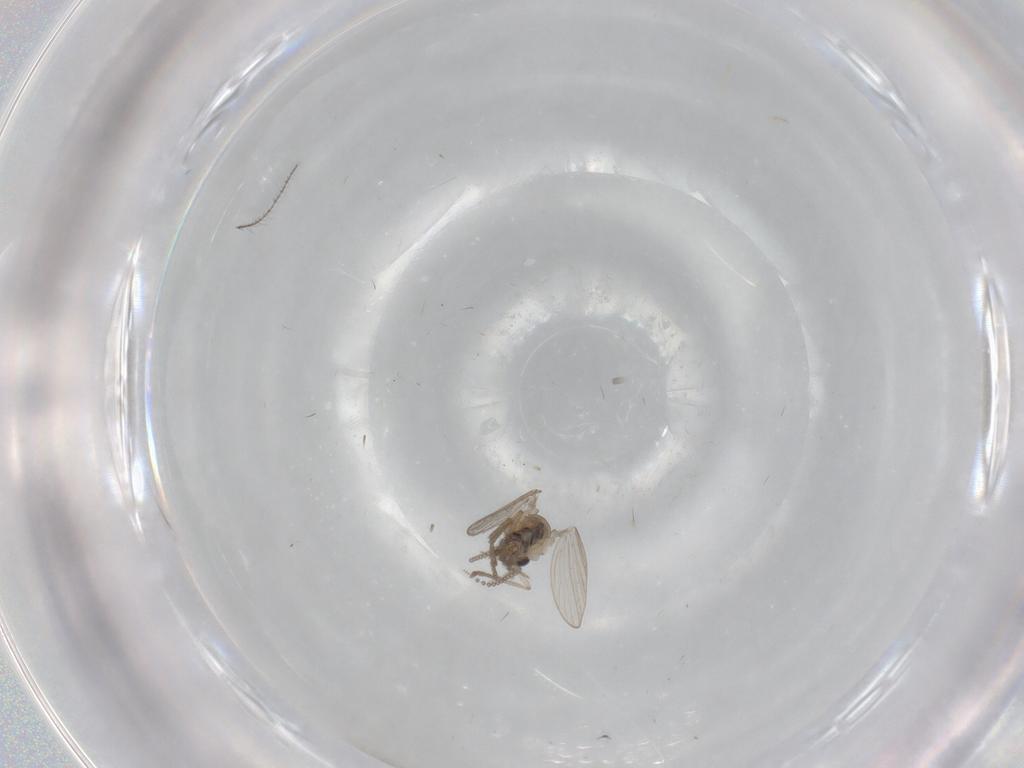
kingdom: Animalia
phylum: Arthropoda
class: Insecta
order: Diptera
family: Psychodidae
